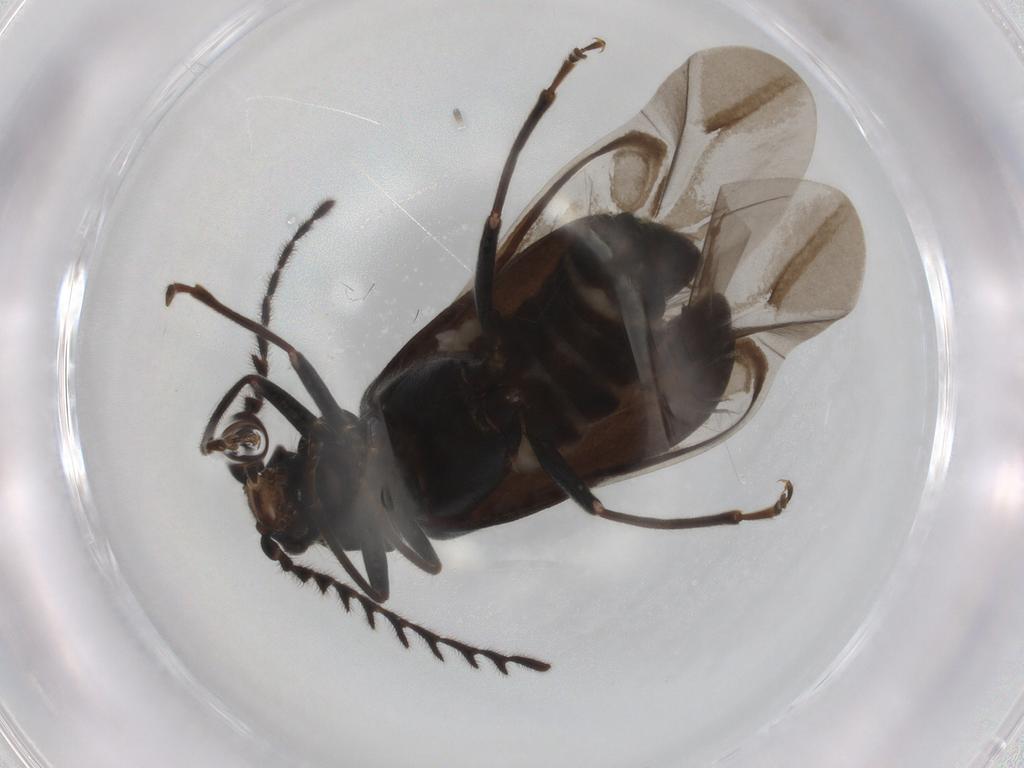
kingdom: Animalia
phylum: Arthropoda
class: Insecta
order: Coleoptera
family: Melyridae
